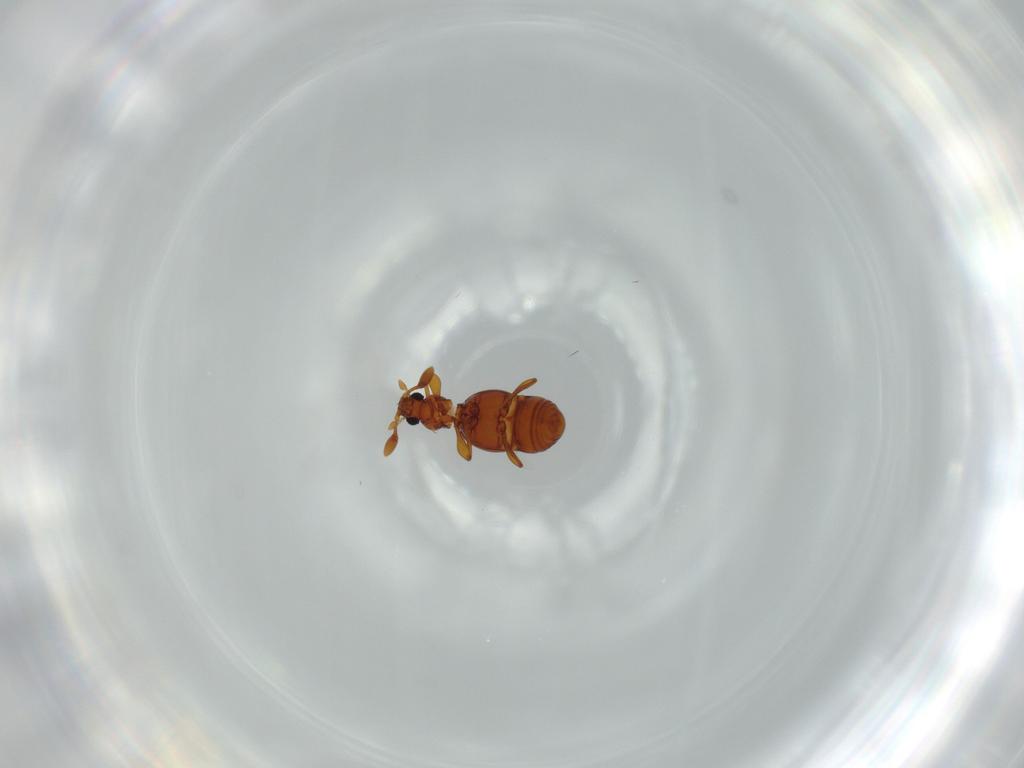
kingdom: Animalia
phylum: Arthropoda
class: Insecta
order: Coleoptera
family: Staphylinidae
